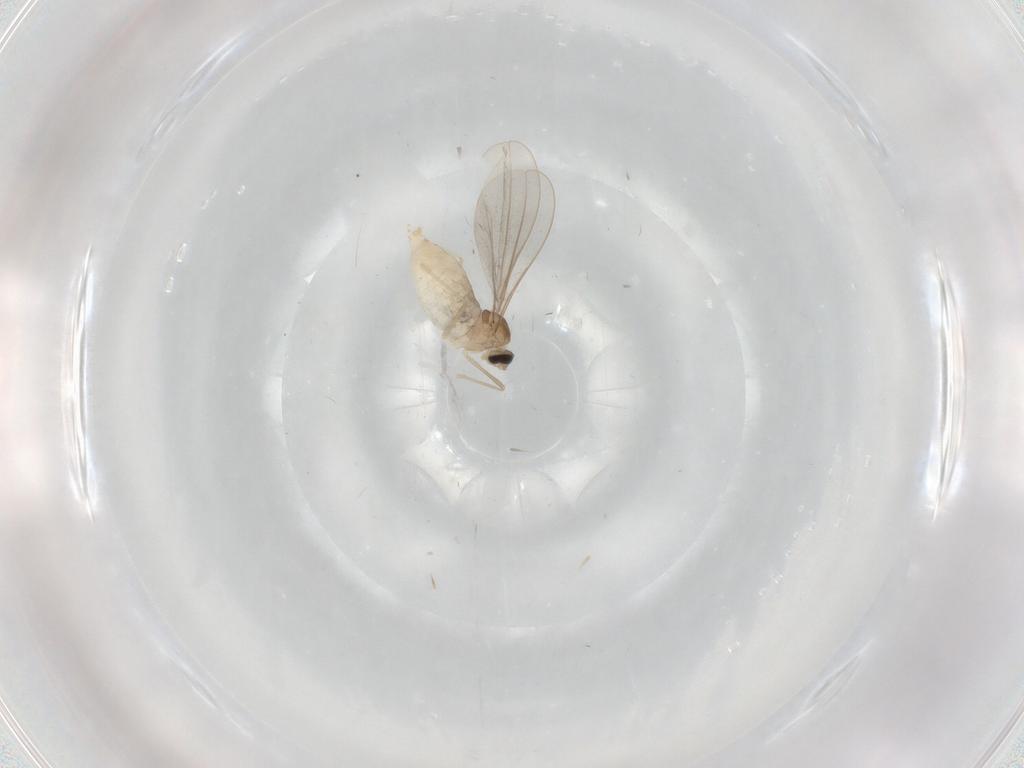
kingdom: Animalia
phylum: Arthropoda
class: Insecta
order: Diptera
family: Cecidomyiidae
